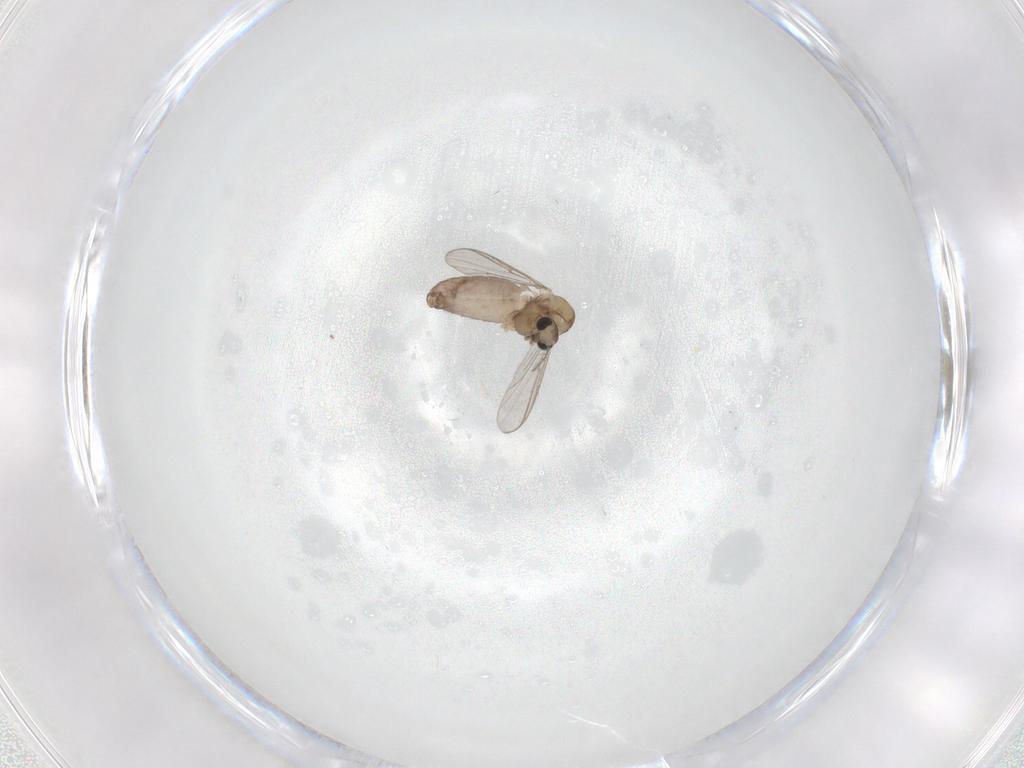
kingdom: Animalia
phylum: Arthropoda
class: Insecta
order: Diptera
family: Chironomidae
